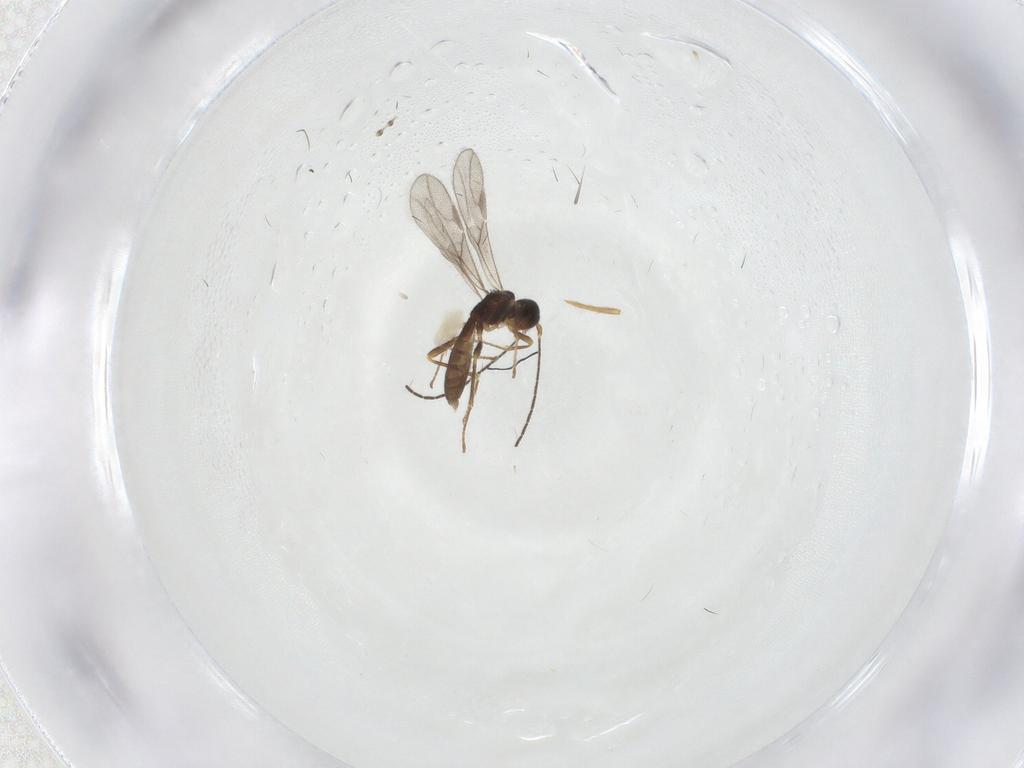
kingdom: Animalia
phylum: Arthropoda
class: Insecta
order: Hymenoptera
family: Braconidae
